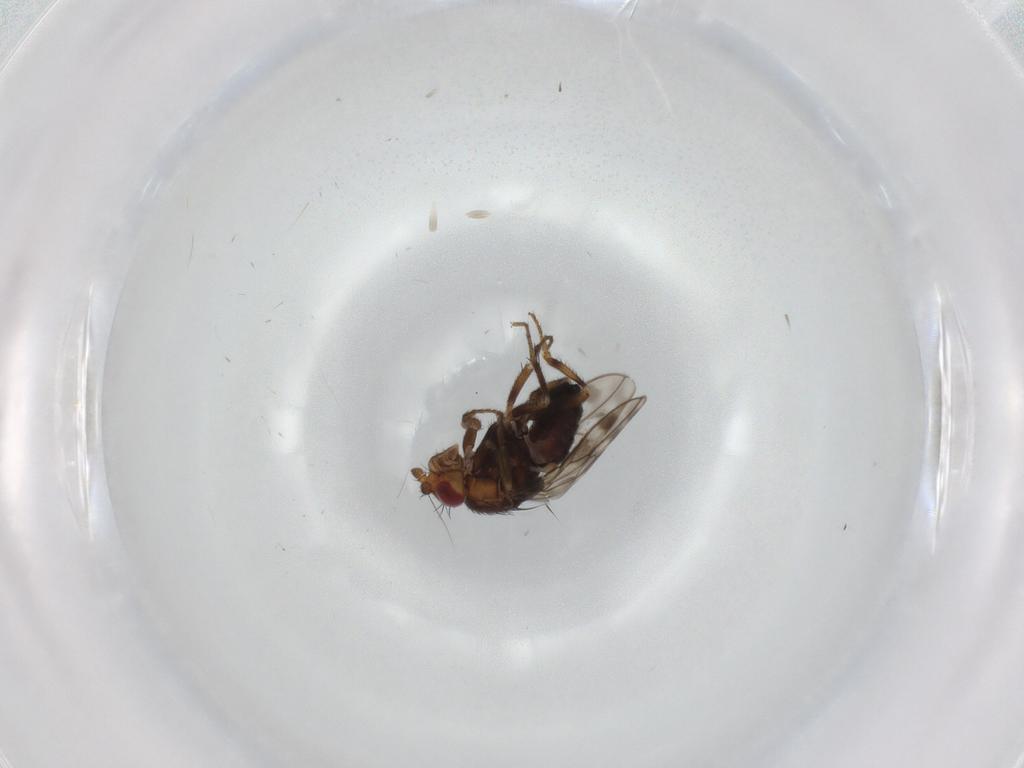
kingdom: Animalia
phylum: Arthropoda
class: Insecta
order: Diptera
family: Sphaeroceridae
